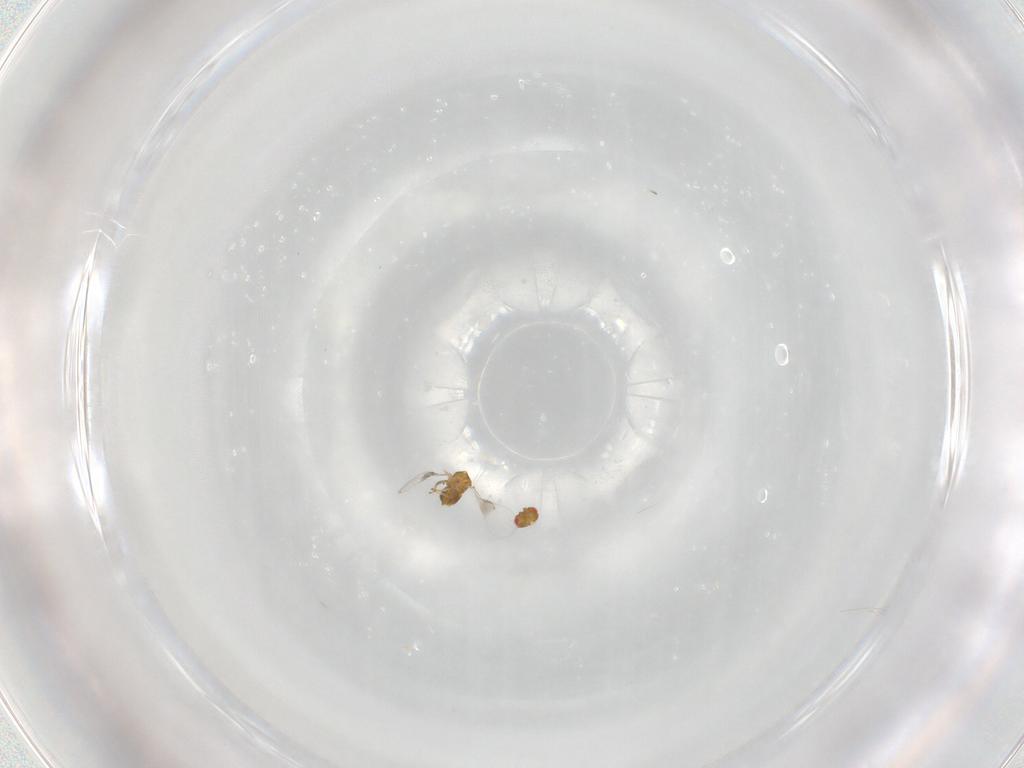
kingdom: Animalia
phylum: Arthropoda
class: Insecta
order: Hymenoptera
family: Trichogrammatidae
